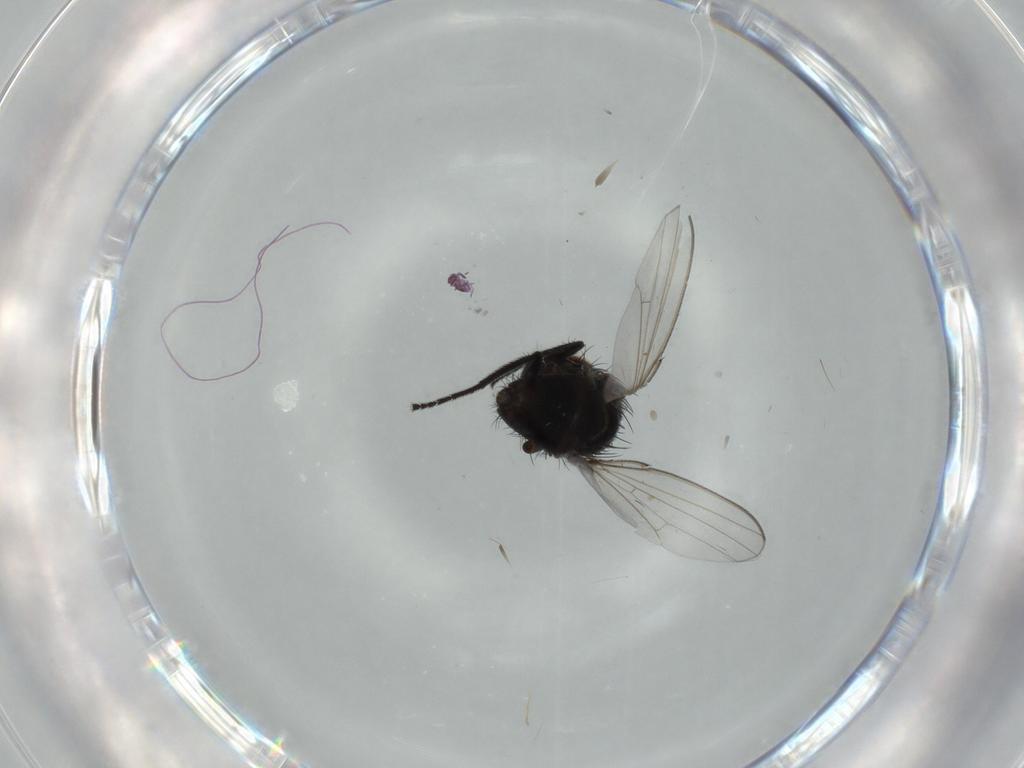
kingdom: Animalia
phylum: Arthropoda
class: Insecta
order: Diptera
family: Milichiidae
